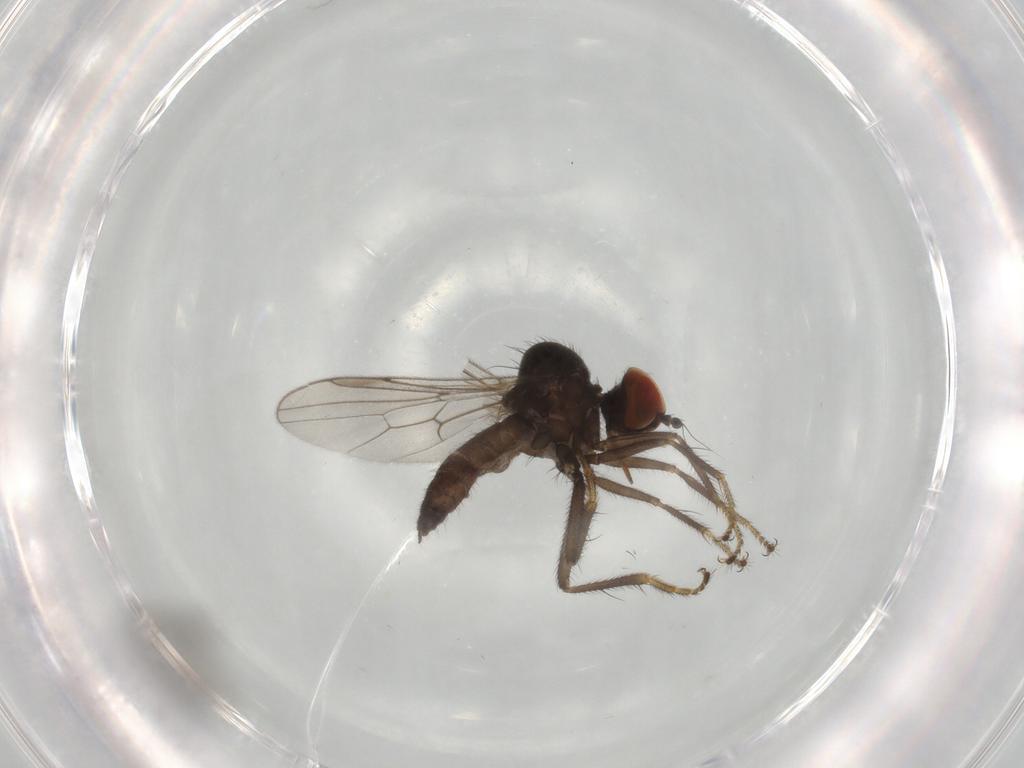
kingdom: Animalia
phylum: Arthropoda
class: Insecta
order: Diptera
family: Hybotidae
